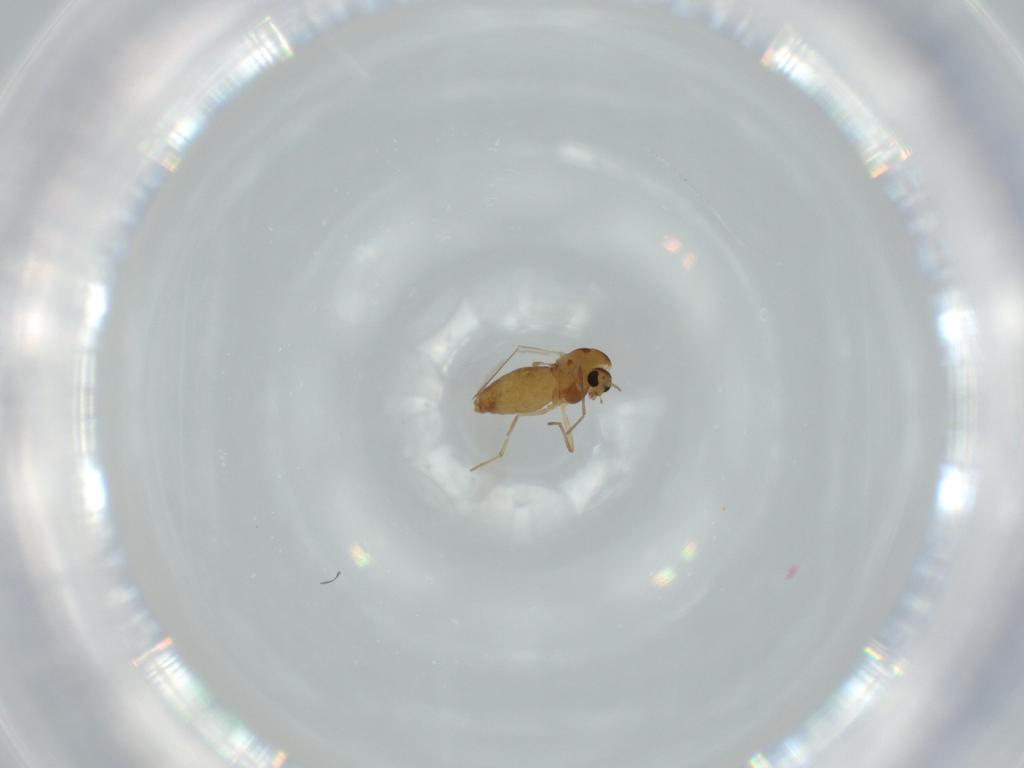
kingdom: Animalia
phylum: Arthropoda
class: Insecta
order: Diptera
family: Chironomidae
